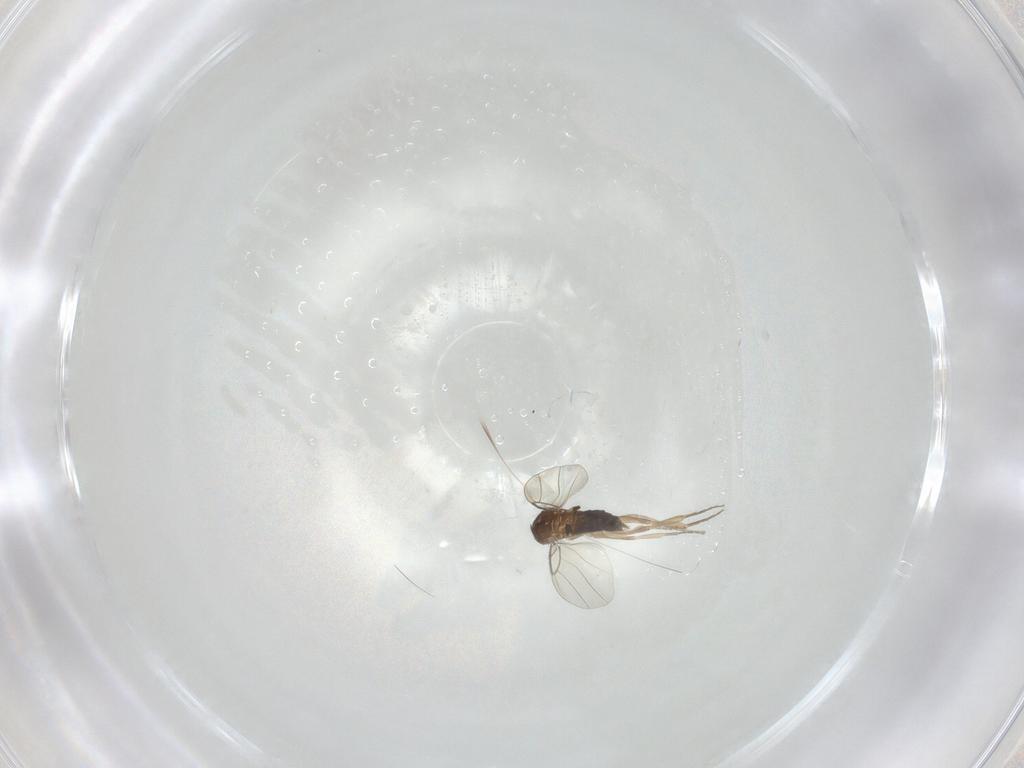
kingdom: Animalia
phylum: Arthropoda
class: Insecta
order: Diptera
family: Phoridae
